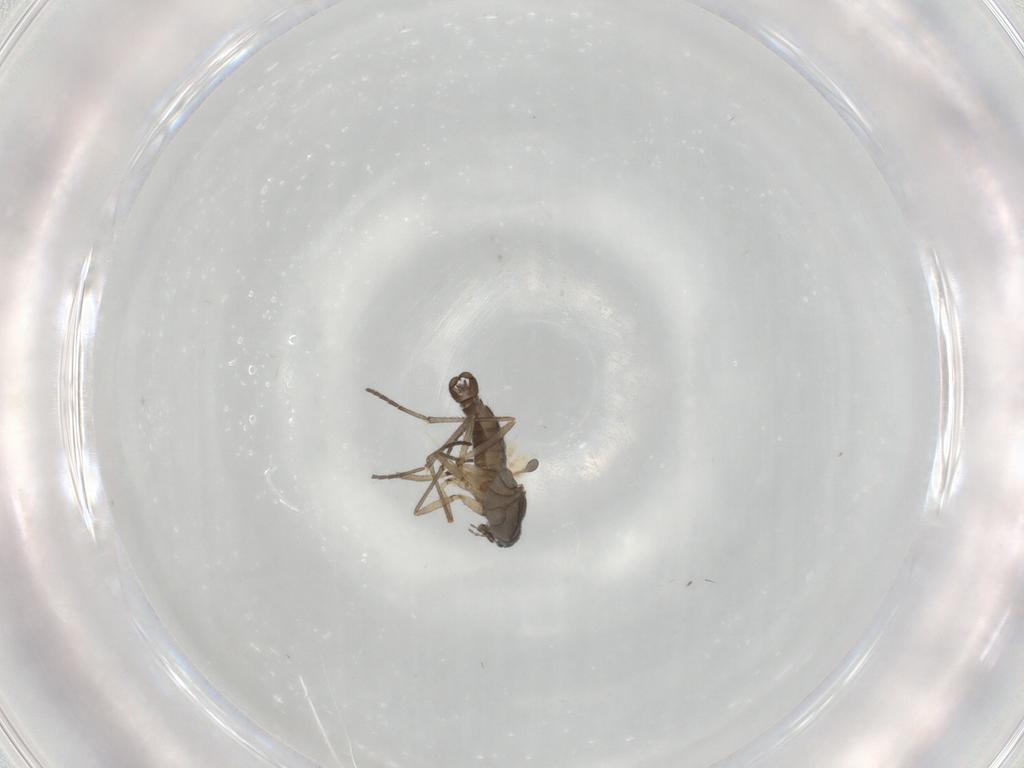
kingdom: Animalia
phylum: Arthropoda
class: Insecta
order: Diptera
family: Sciaridae
